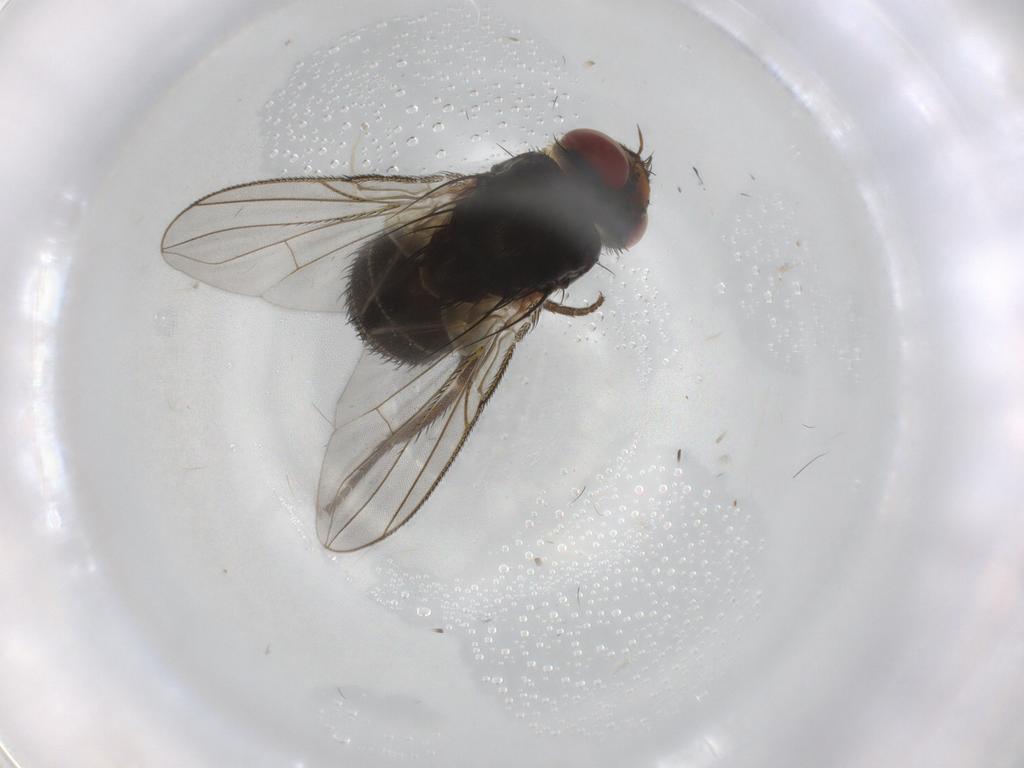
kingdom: Animalia
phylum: Arthropoda
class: Insecta
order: Diptera
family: Tachinidae
